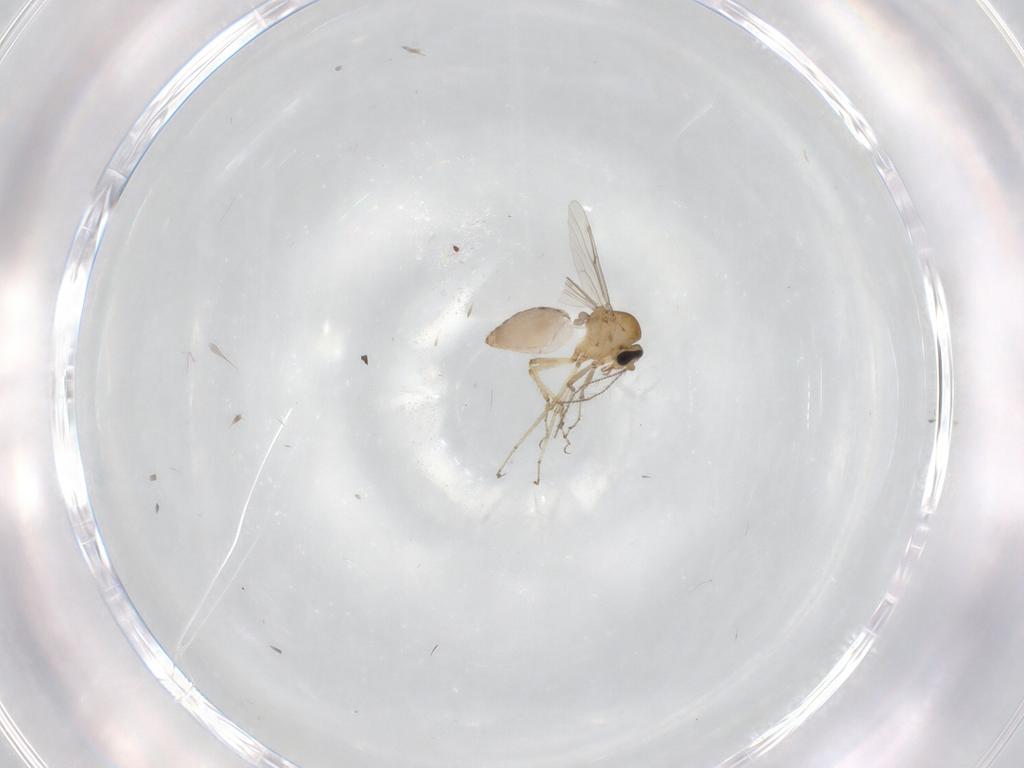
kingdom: Animalia
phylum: Arthropoda
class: Insecta
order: Diptera
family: Ceratopogonidae
